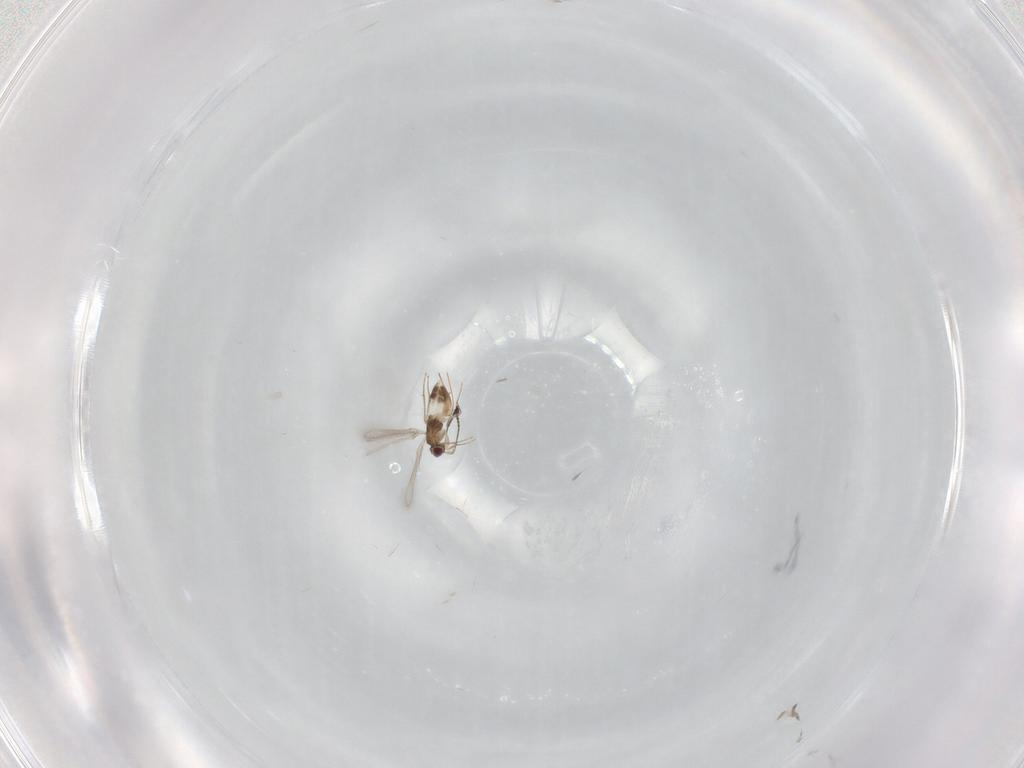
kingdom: Animalia
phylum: Arthropoda
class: Insecta
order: Hymenoptera
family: Mymaridae
